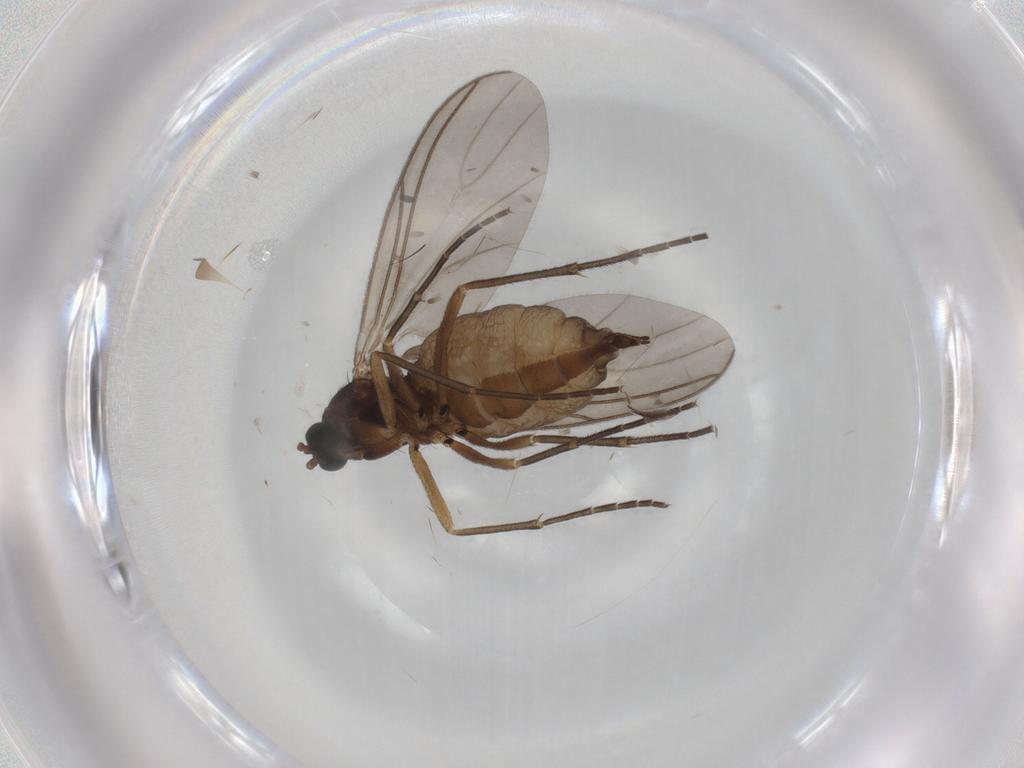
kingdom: Animalia
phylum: Arthropoda
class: Insecta
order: Diptera
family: Sciaridae
